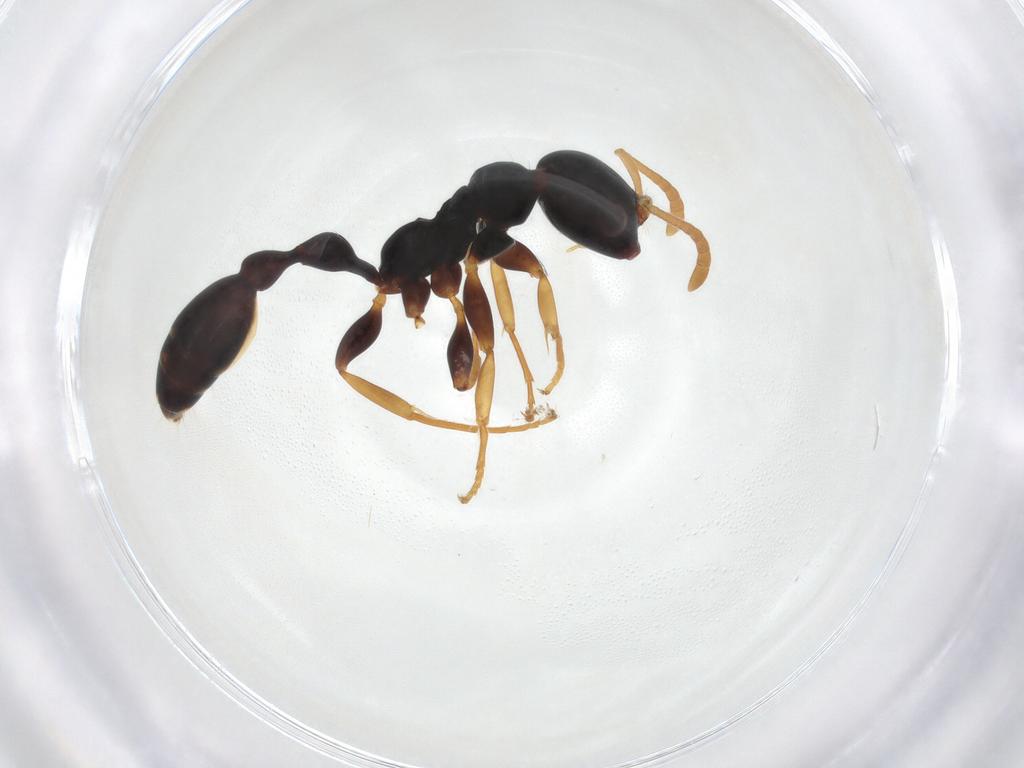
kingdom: Animalia
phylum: Arthropoda
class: Insecta
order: Hymenoptera
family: Formicidae
